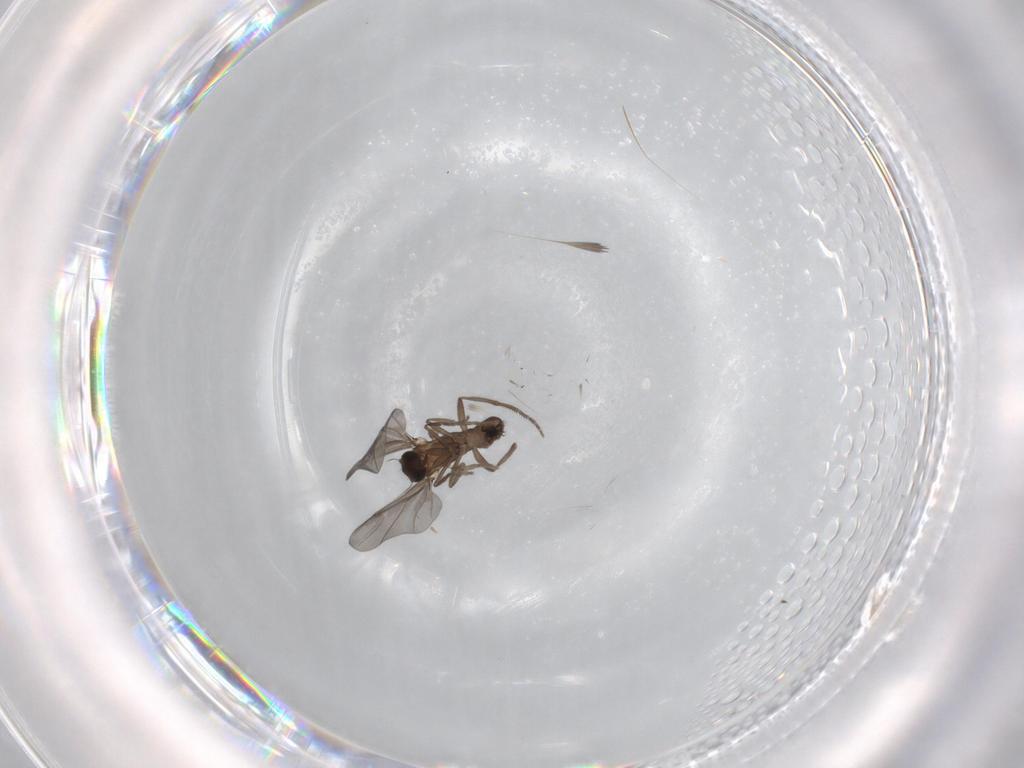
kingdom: Animalia
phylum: Arthropoda
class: Insecta
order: Diptera
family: Phoridae
